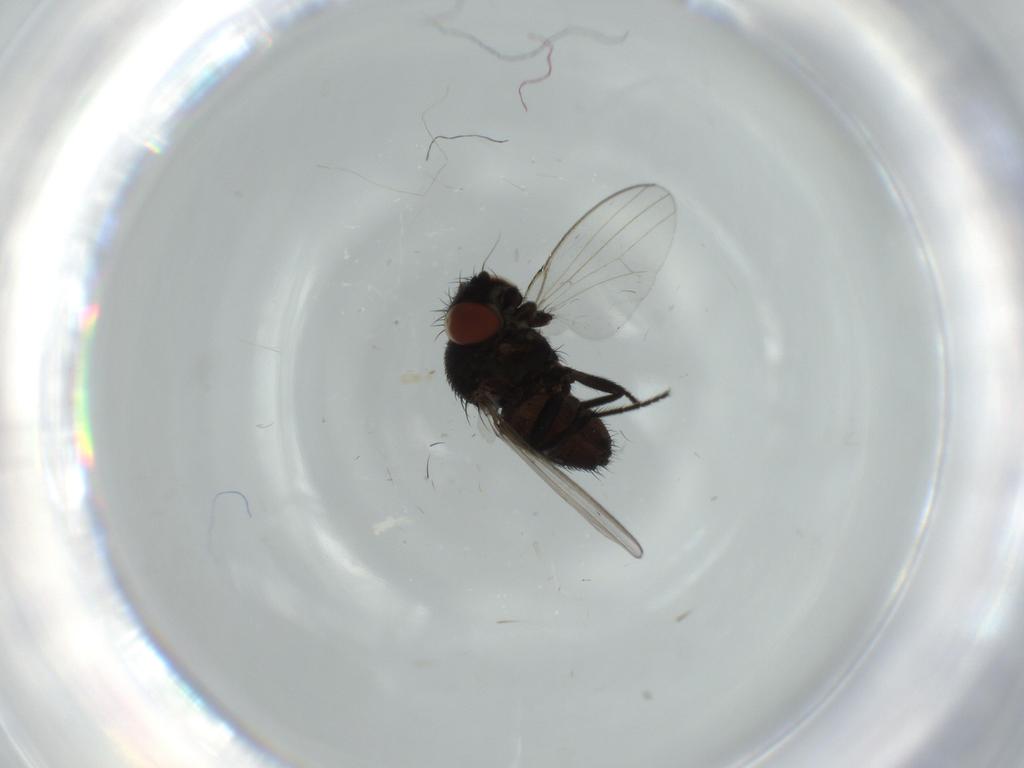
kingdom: Animalia
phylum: Arthropoda
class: Insecta
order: Diptera
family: Milichiidae
